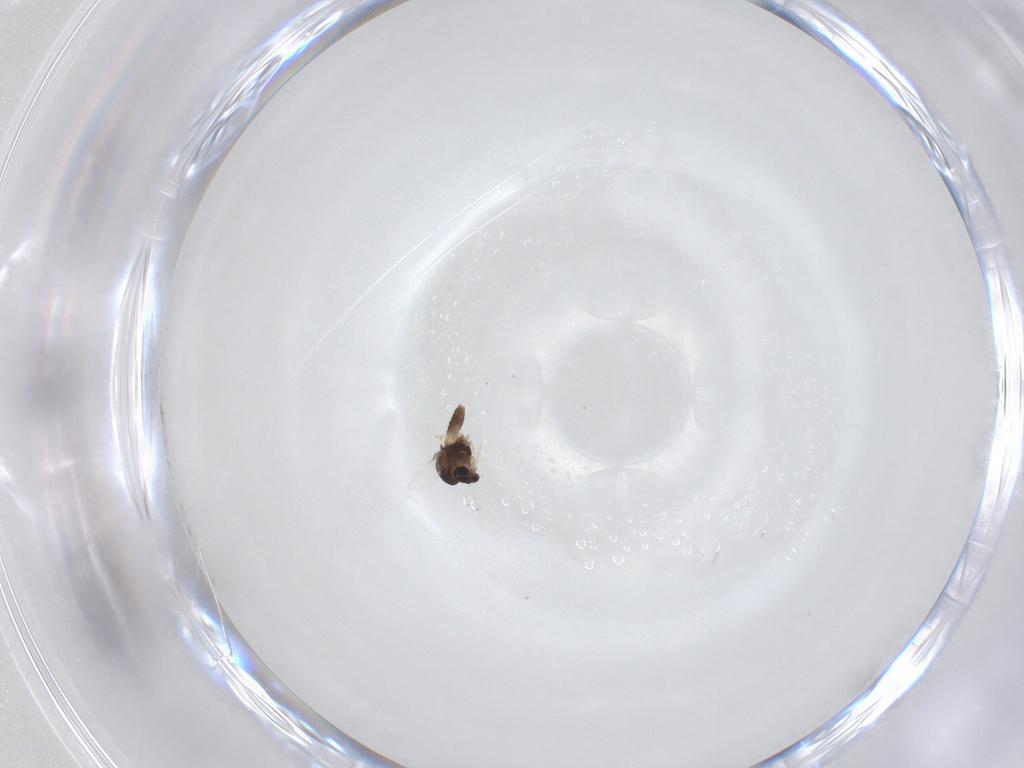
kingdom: Animalia
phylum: Arthropoda
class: Insecta
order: Diptera
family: Chironomidae
